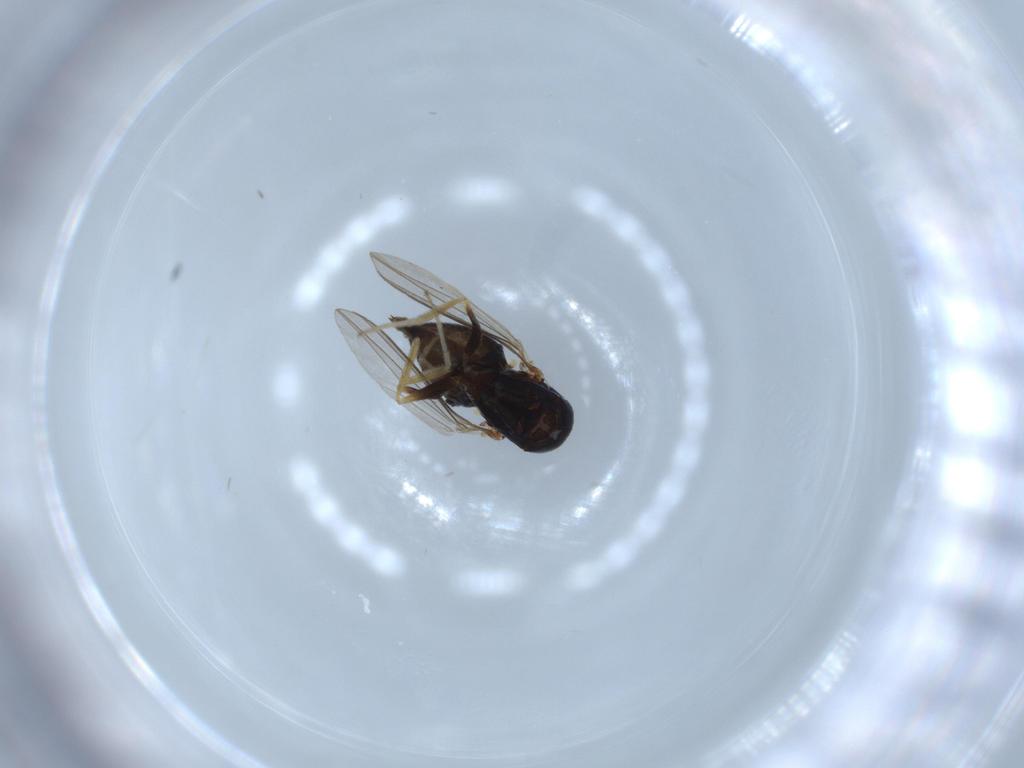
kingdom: Animalia
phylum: Arthropoda
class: Insecta
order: Diptera
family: Dolichopodidae
